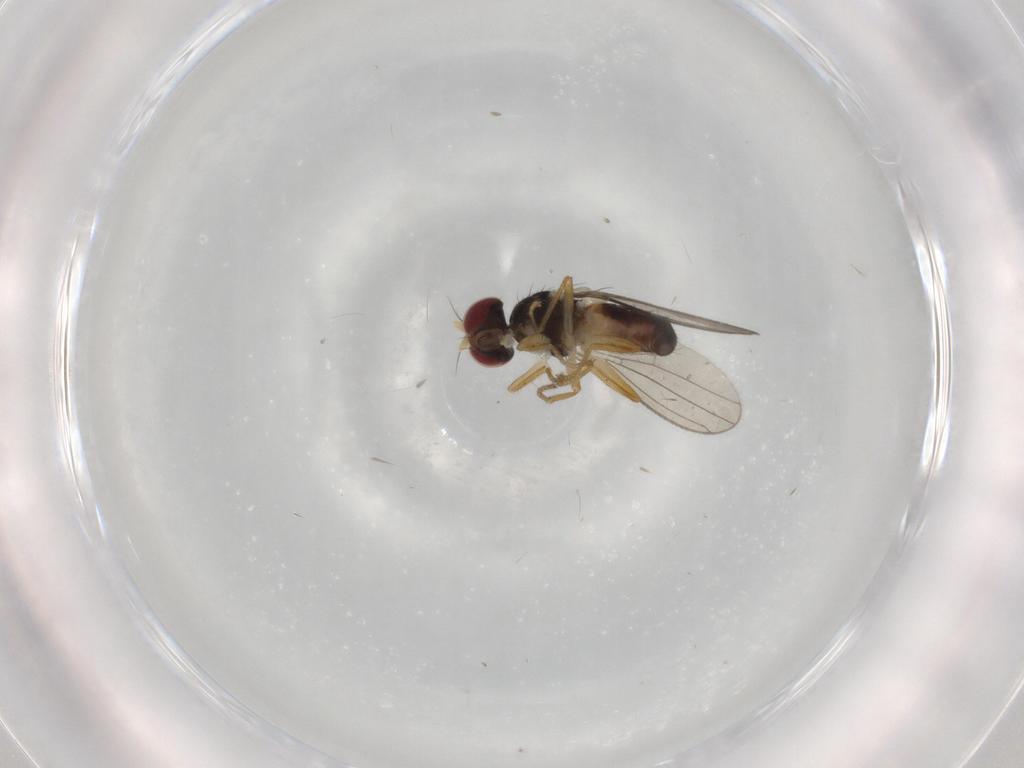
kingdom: Animalia
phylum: Arthropoda
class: Insecta
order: Diptera
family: Anthomyzidae
